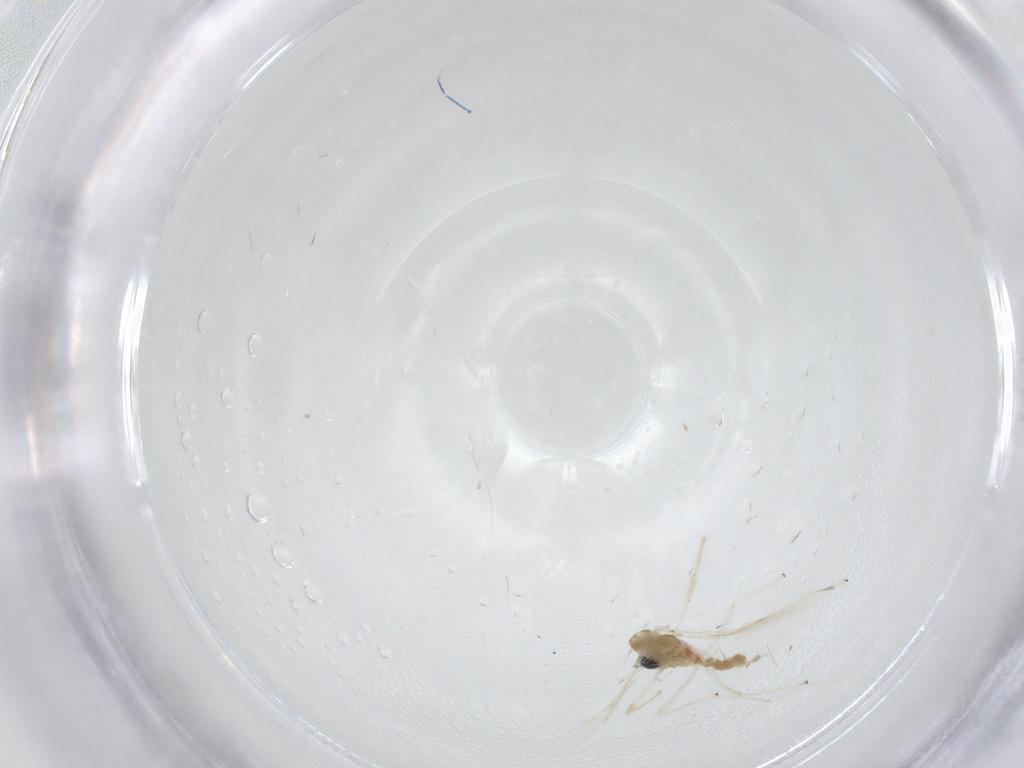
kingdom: Animalia
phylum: Arthropoda
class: Insecta
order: Diptera
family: Chironomidae
